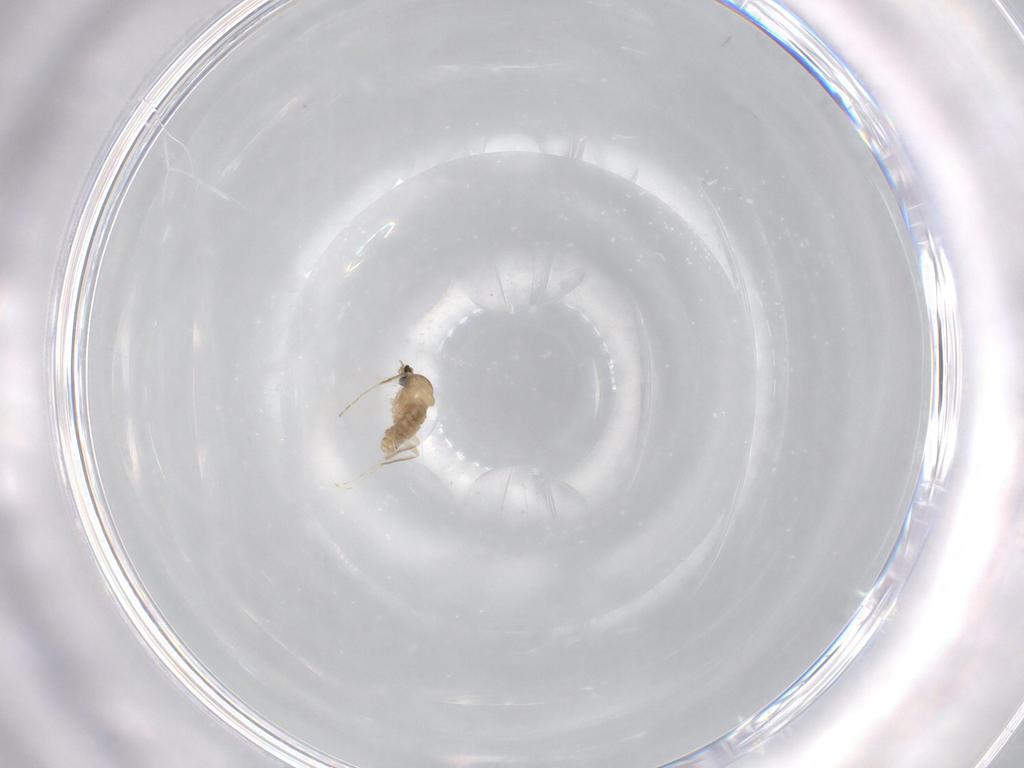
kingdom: Animalia
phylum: Arthropoda
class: Insecta
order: Diptera
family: Cecidomyiidae
